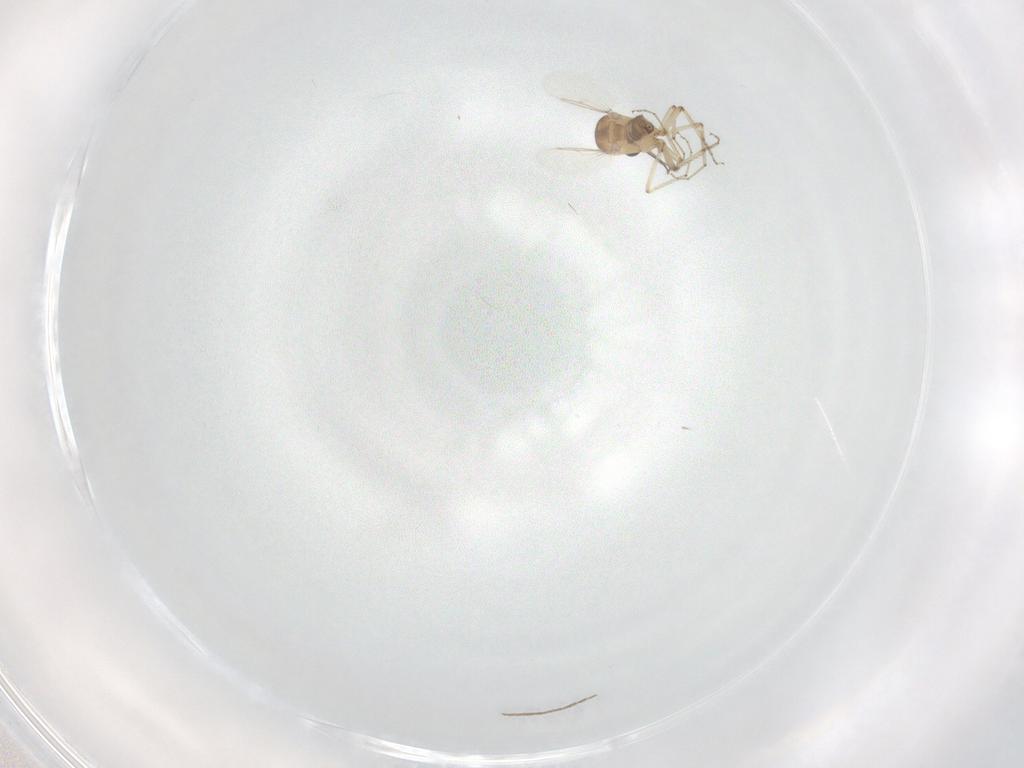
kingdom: Animalia
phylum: Arthropoda
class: Insecta
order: Diptera
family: Ceratopogonidae
